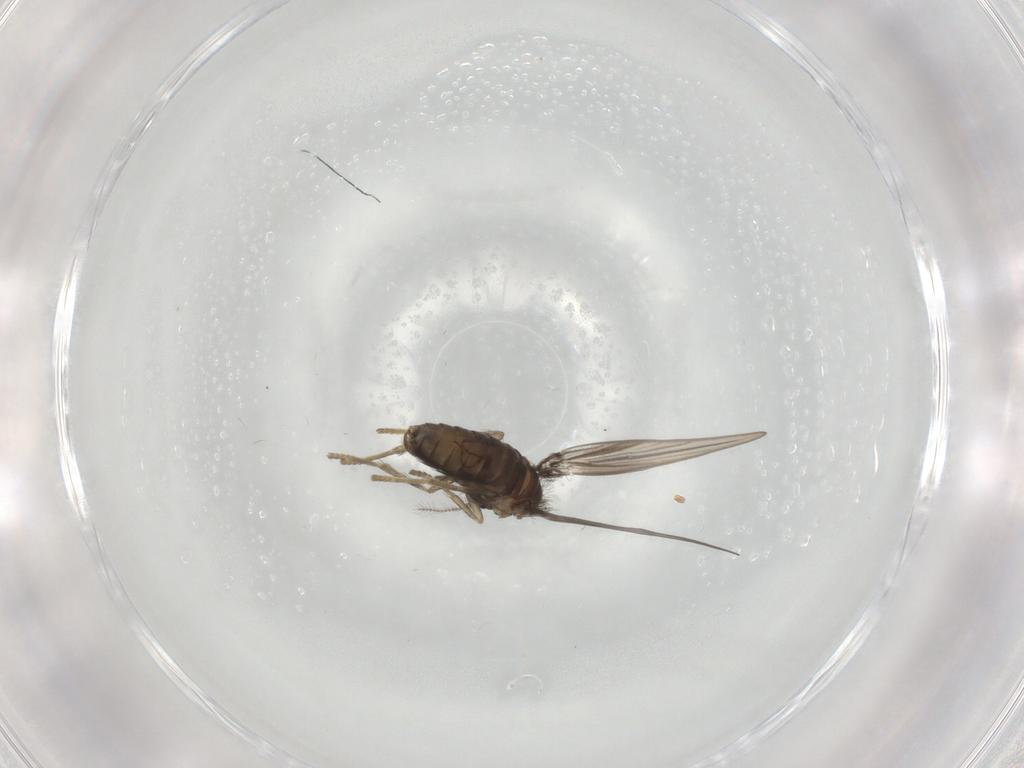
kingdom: Animalia
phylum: Arthropoda
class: Insecta
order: Diptera
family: Psychodidae
